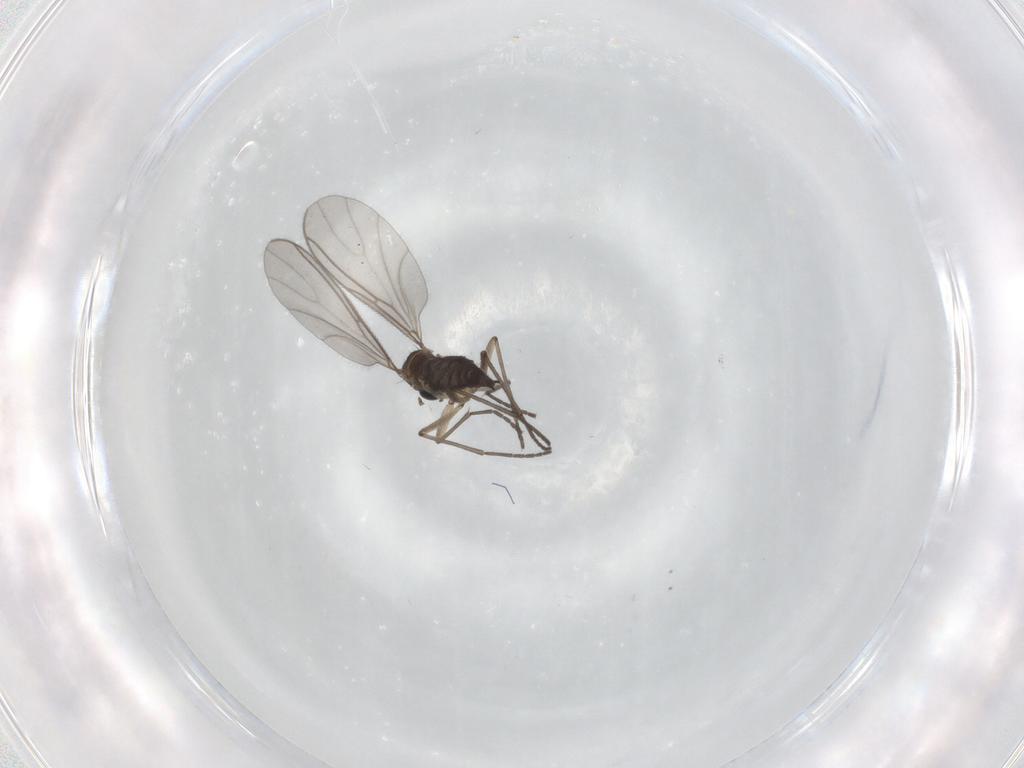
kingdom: Animalia
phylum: Arthropoda
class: Insecta
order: Diptera
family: Sciaridae
